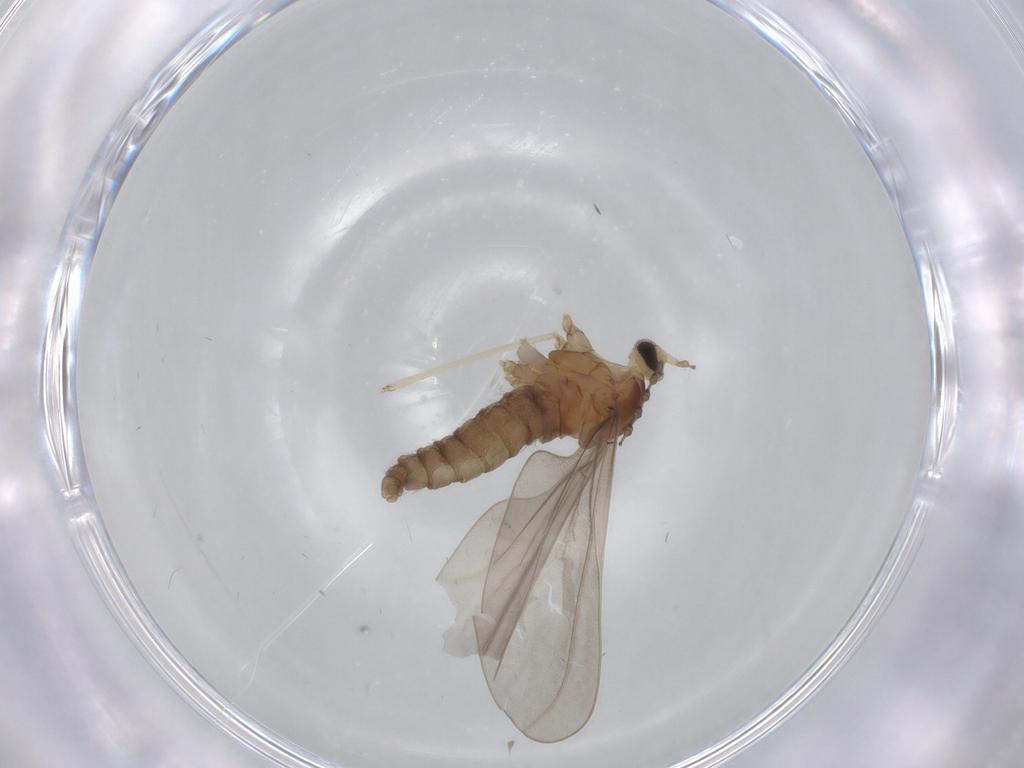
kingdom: Animalia
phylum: Arthropoda
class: Insecta
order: Diptera
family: Cecidomyiidae
